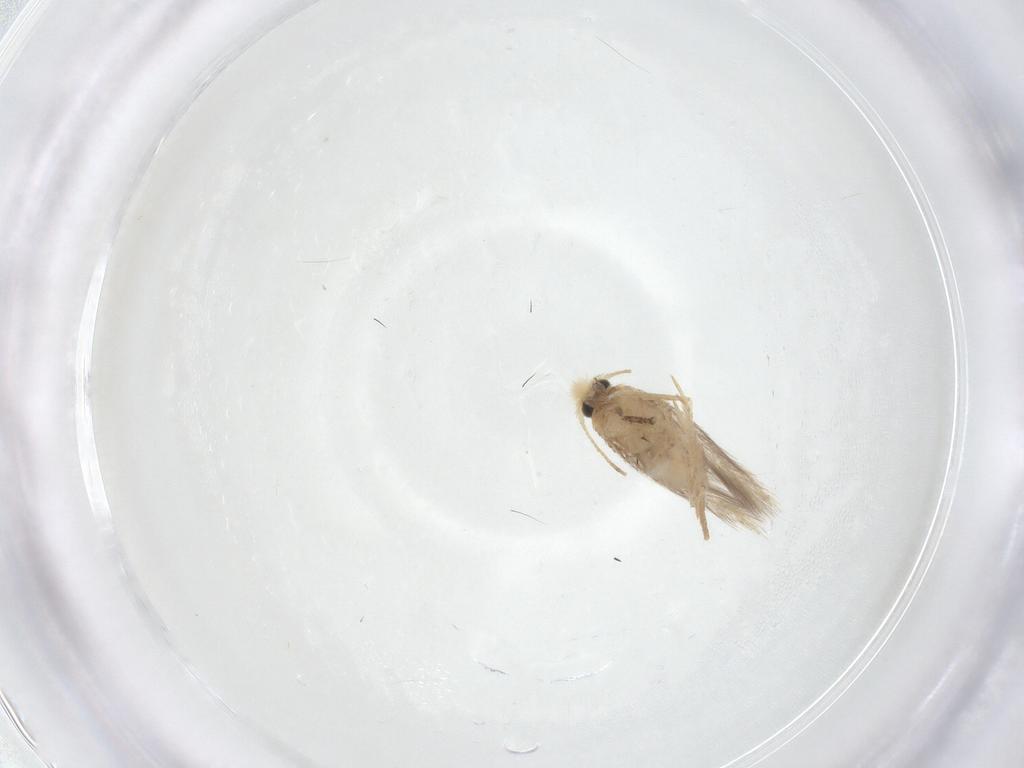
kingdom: Animalia
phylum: Arthropoda
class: Insecta
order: Lepidoptera
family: Nepticulidae
